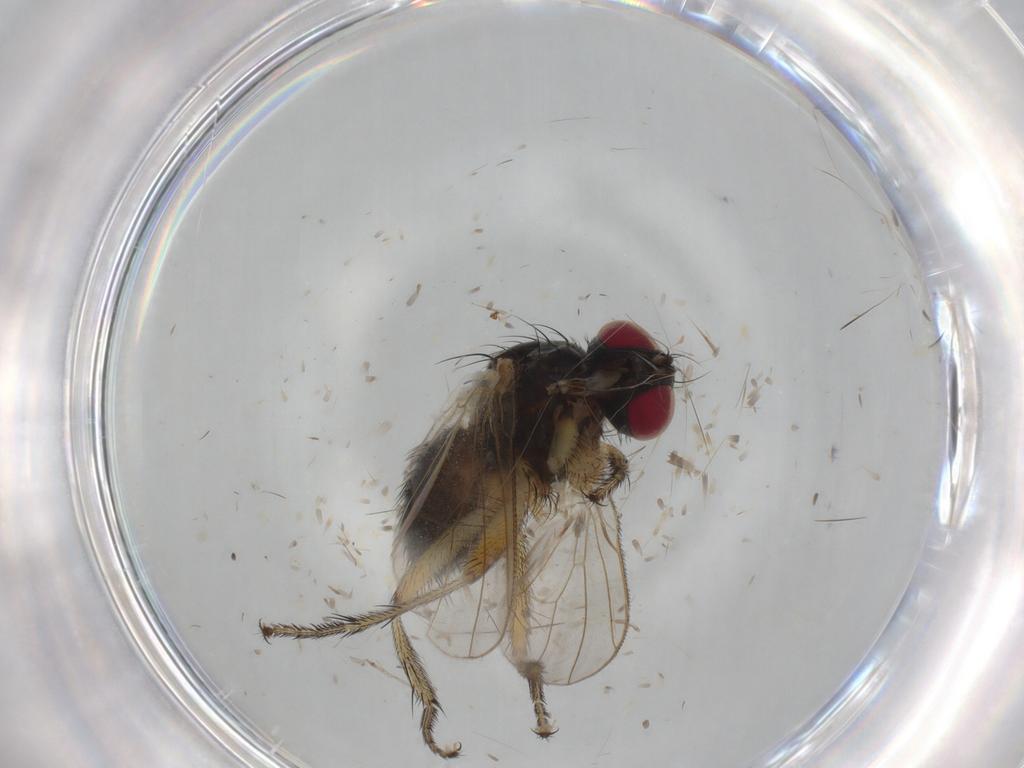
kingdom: Animalia
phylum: Arthropoda
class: Insecta
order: Diptera
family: Muscidae
